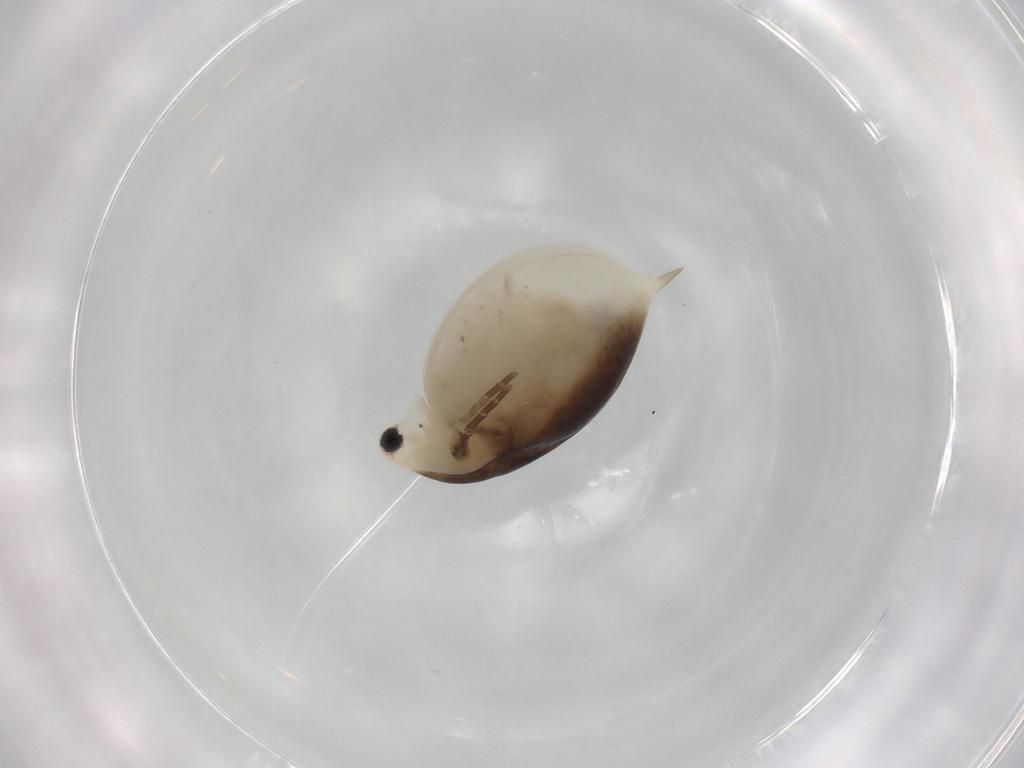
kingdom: Animalia
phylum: Arthropoda
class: Branchiopoda
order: Diplostraca
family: Daphniidae
